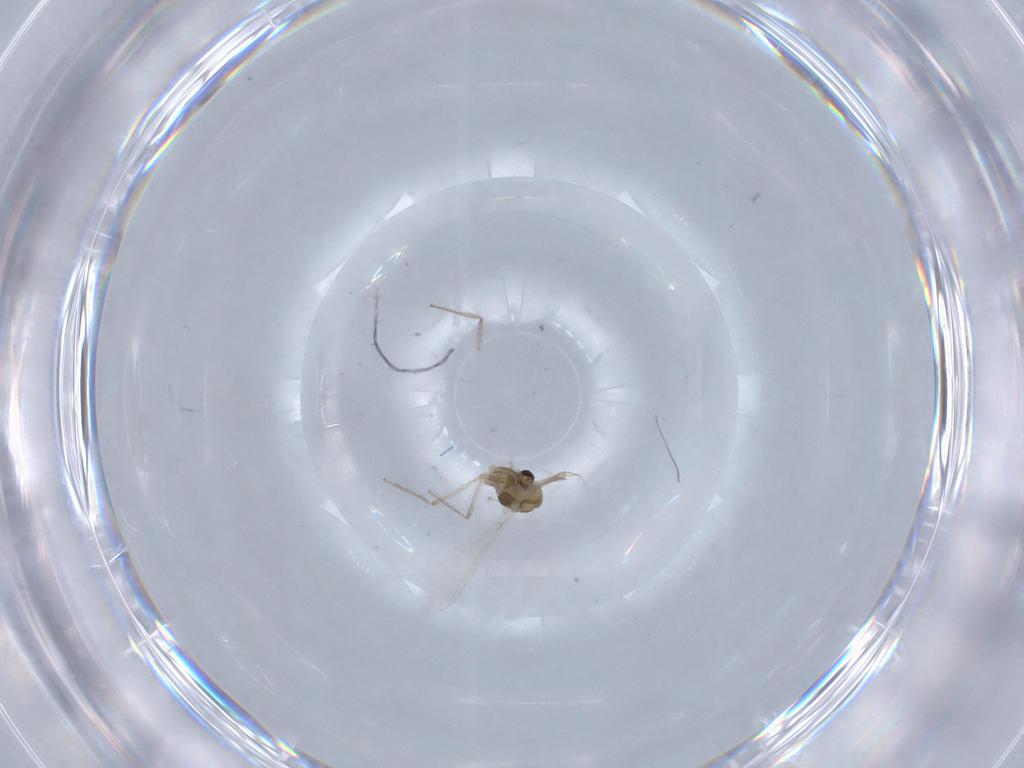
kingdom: Animalia
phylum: Arthropoda
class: Insecta
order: Diptera
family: Chironomidae
